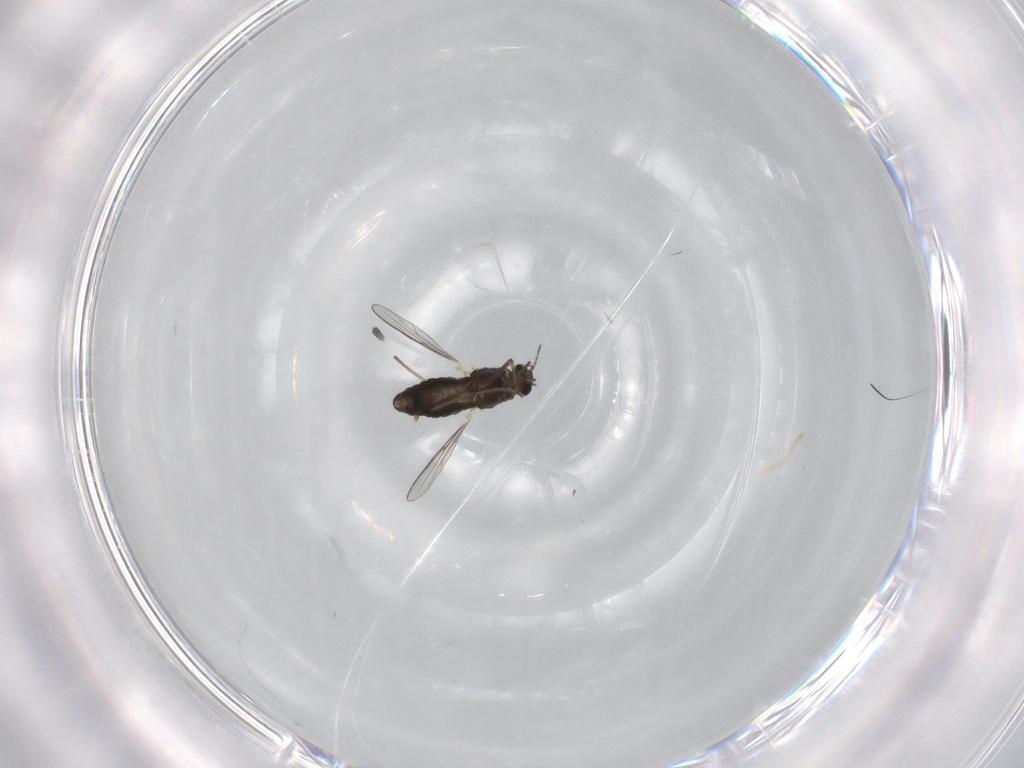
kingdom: Animalia
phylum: Arthropoda
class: Insecta
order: Diptera
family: Chironomidae
